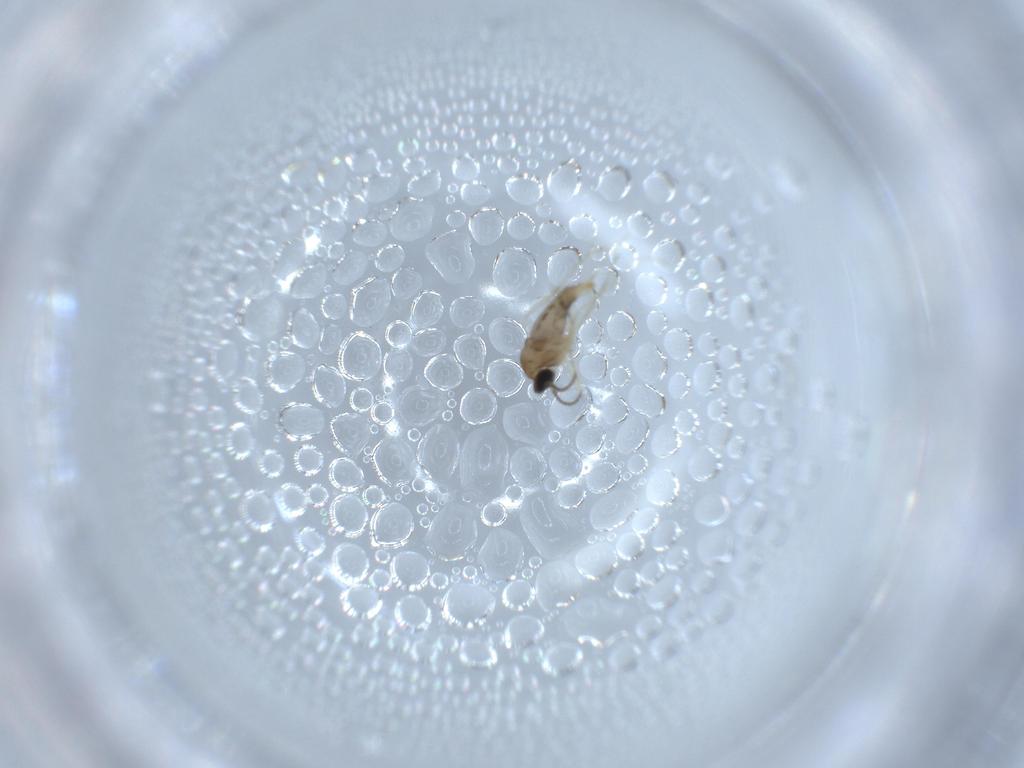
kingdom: Animalia
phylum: Arthropoda
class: Insecta
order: Diptera
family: Cecidomyiidae
